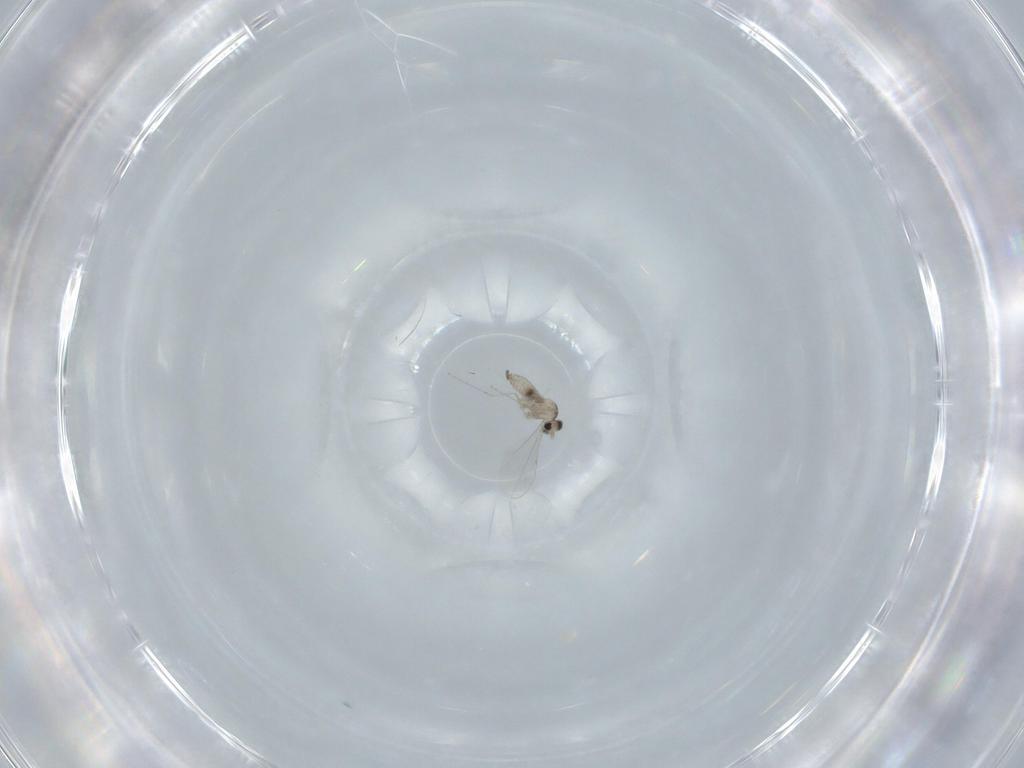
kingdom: Animalia
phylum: Arthropoda
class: Insecta
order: Diptera
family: Cecidomyiidae
